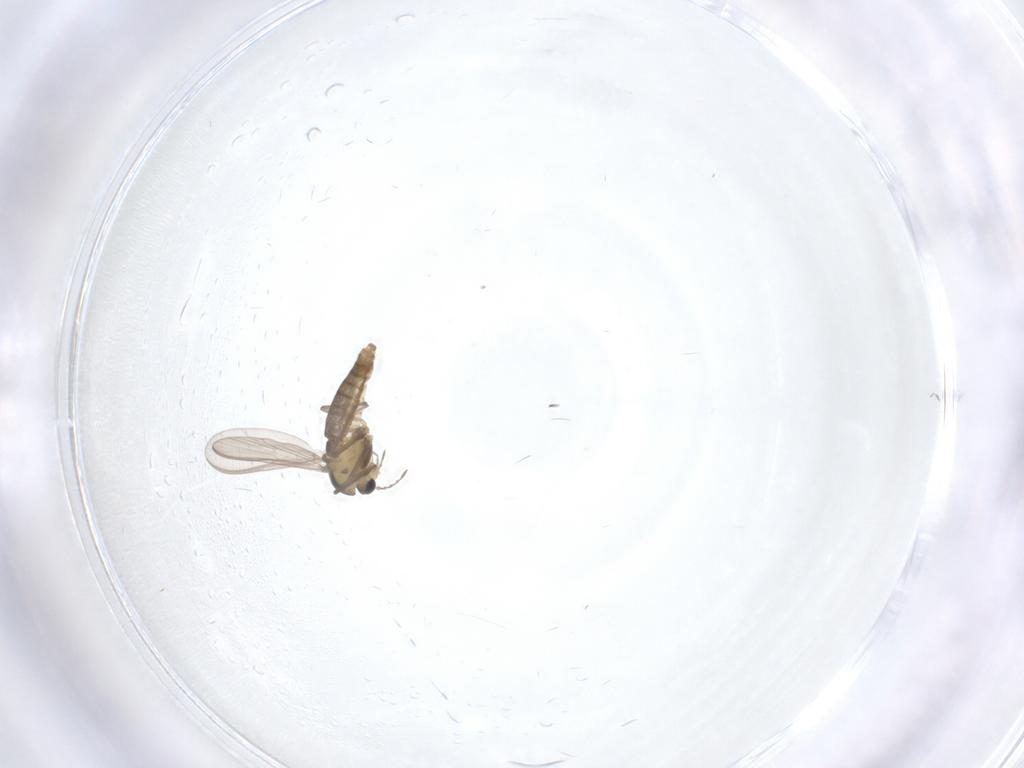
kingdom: Animalia
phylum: Arthropoda
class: Insecta
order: Diptera
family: Chironomidae
